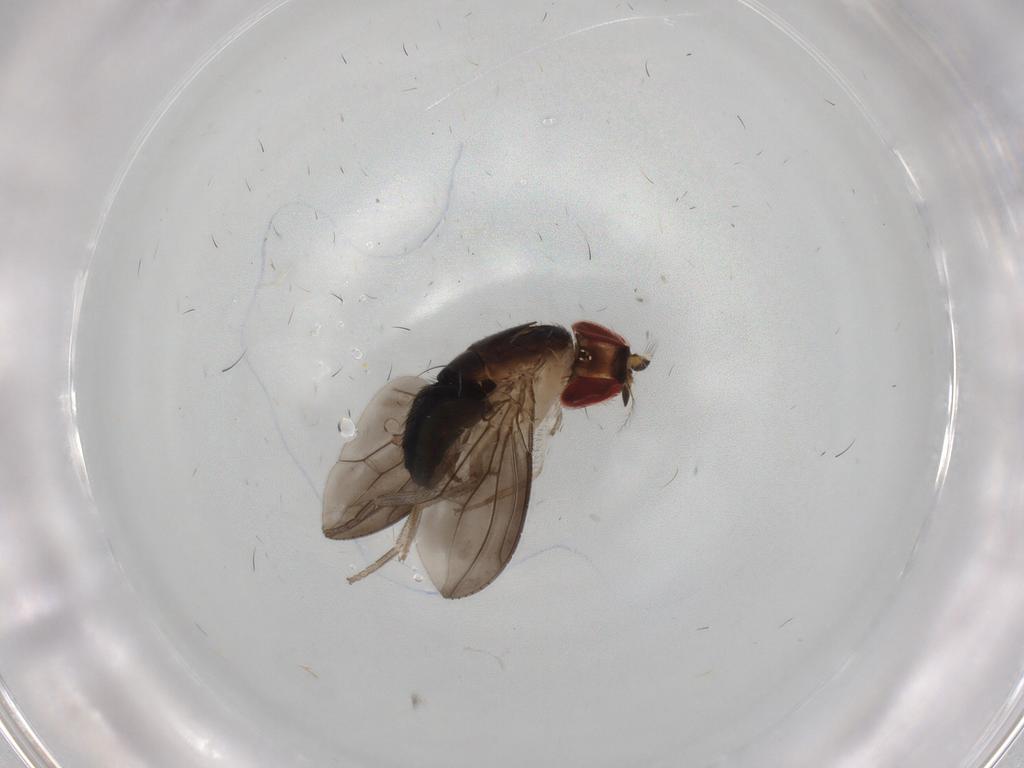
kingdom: Animalia
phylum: Arthropoda
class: Insecta
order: Diptera
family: Drosophilidae
